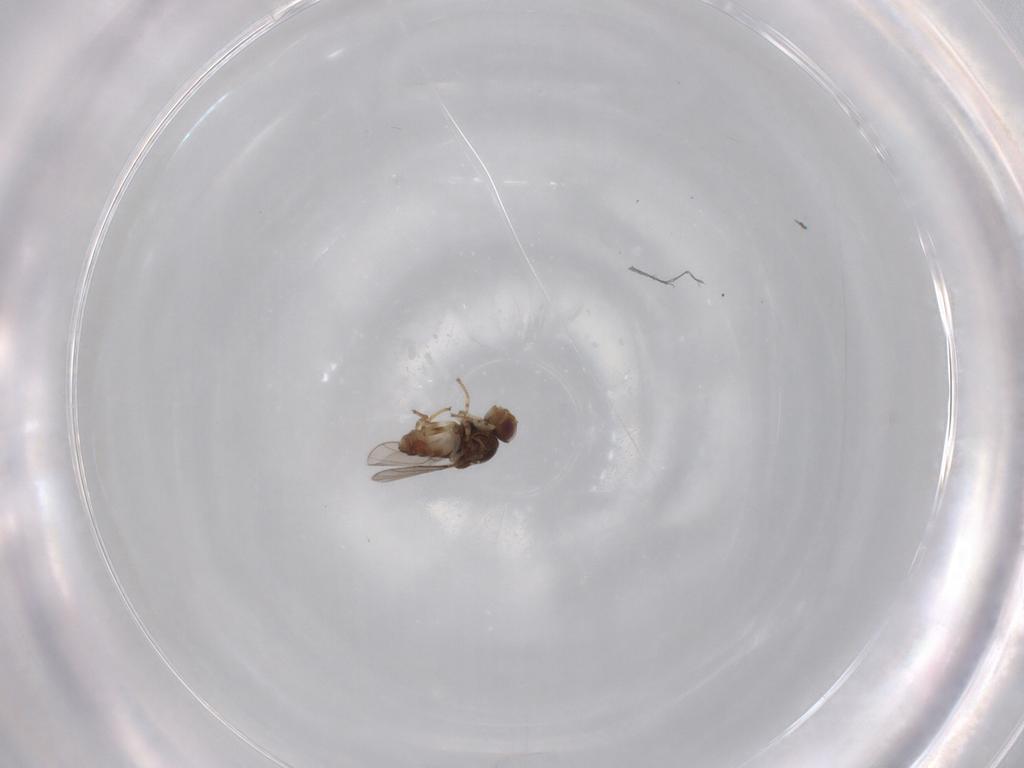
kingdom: Animalia
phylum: Arthropoda
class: Insecta
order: Diptera
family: Chloropidae
